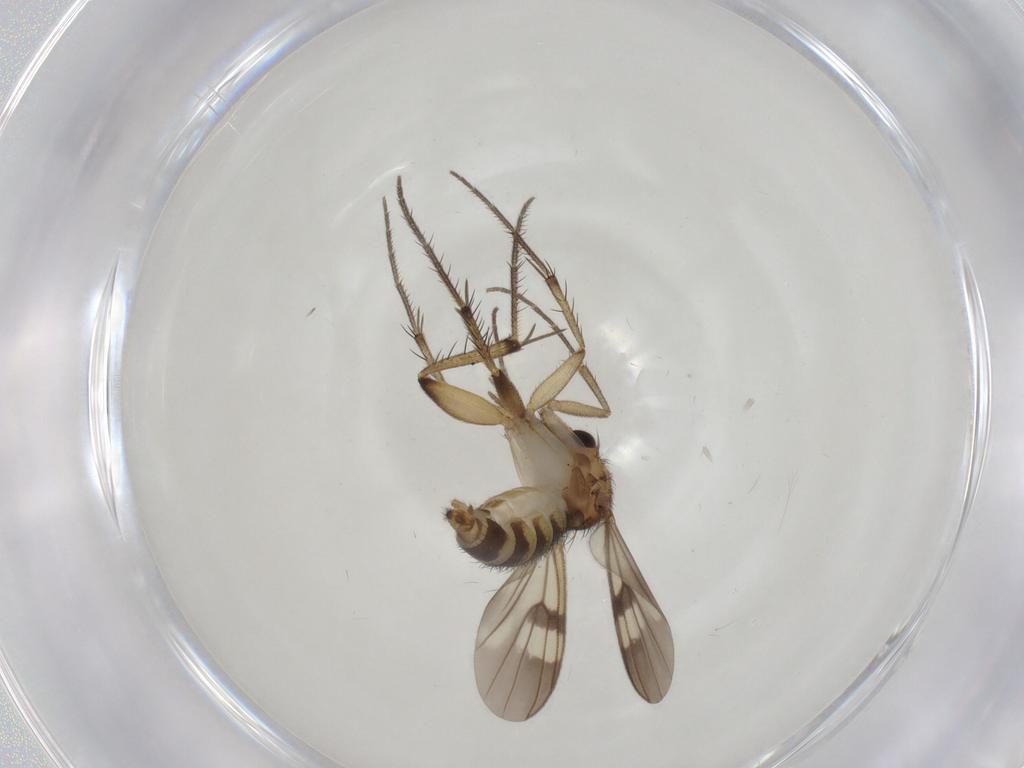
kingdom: Animalia
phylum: Arthropoda
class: Insecta
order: Diptera
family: Mycetophilidae
